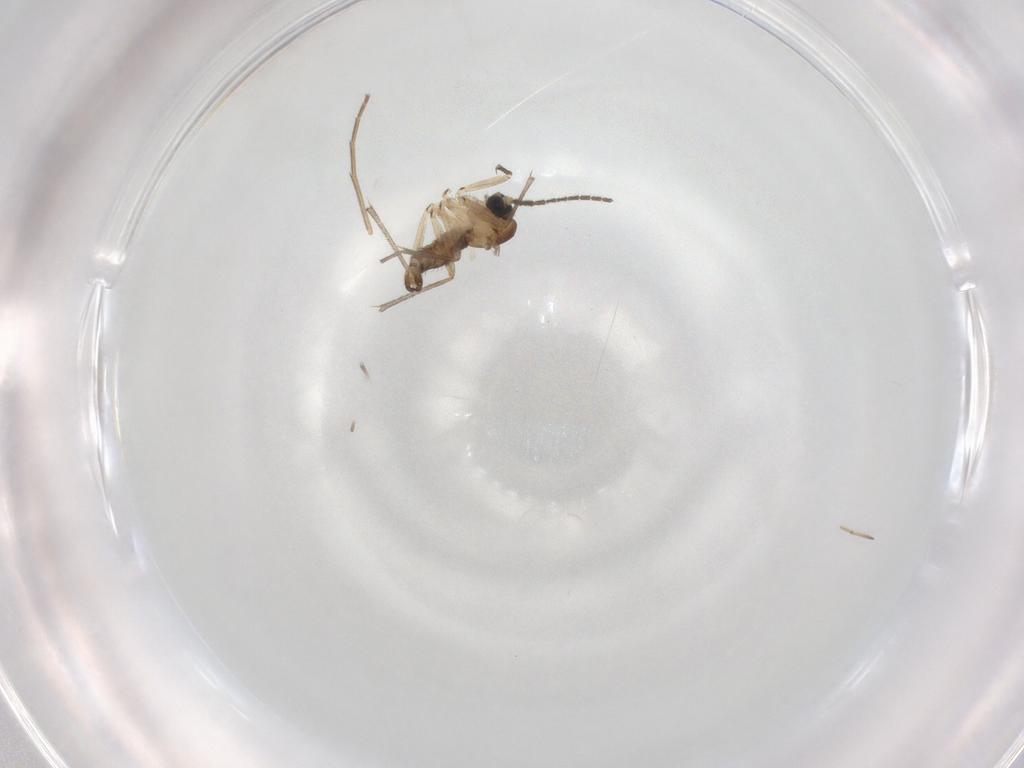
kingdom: Animalia
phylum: Arthropoda
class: Insecta
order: Diptera
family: Sciaridae
